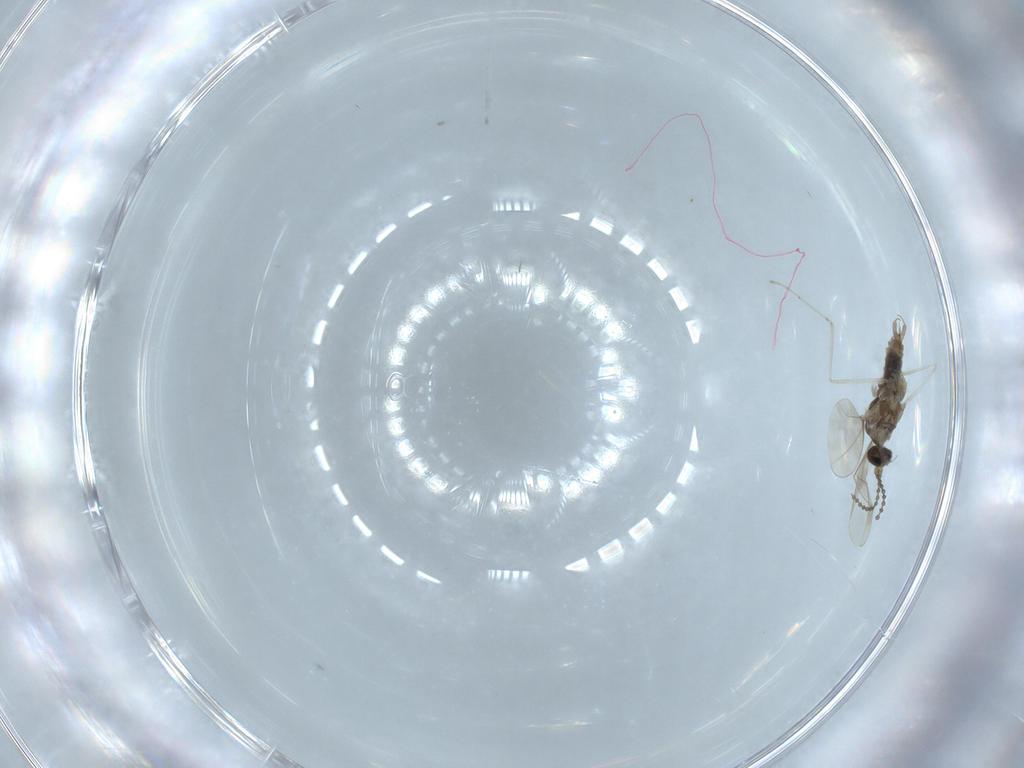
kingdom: Animalia
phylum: Arthropoda
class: Insecta
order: Diptera
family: Cecidomyiidae
